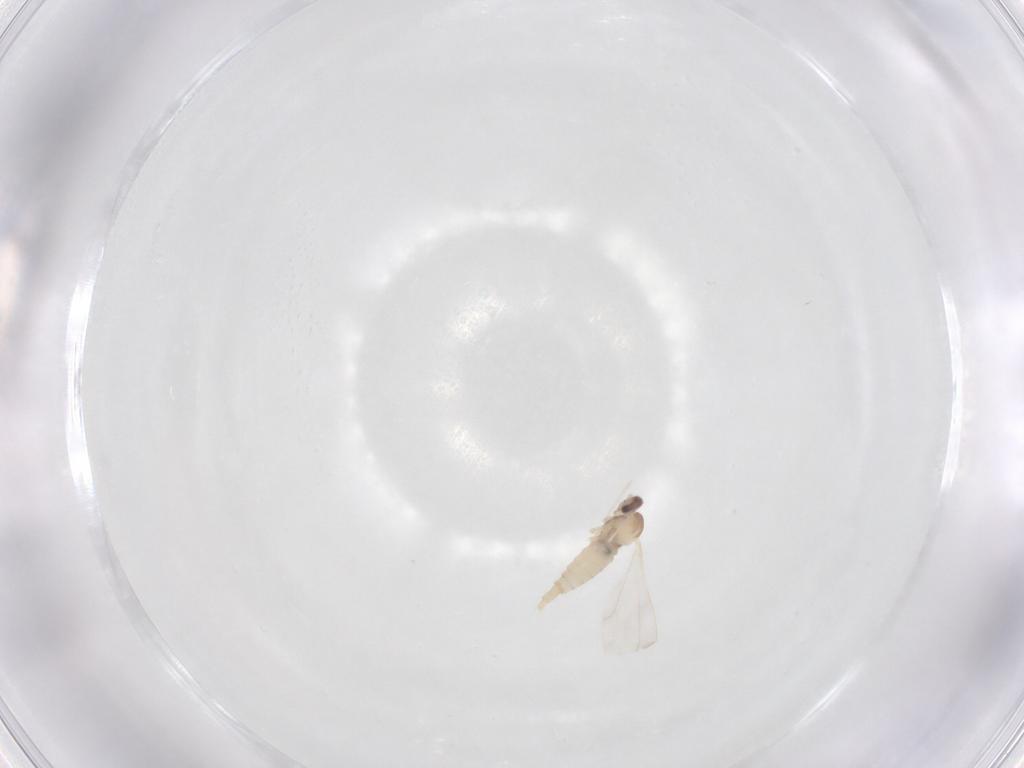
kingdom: Animalia
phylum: Arthropoda
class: Insecta
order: Diptera
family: Cecidomyiidae
